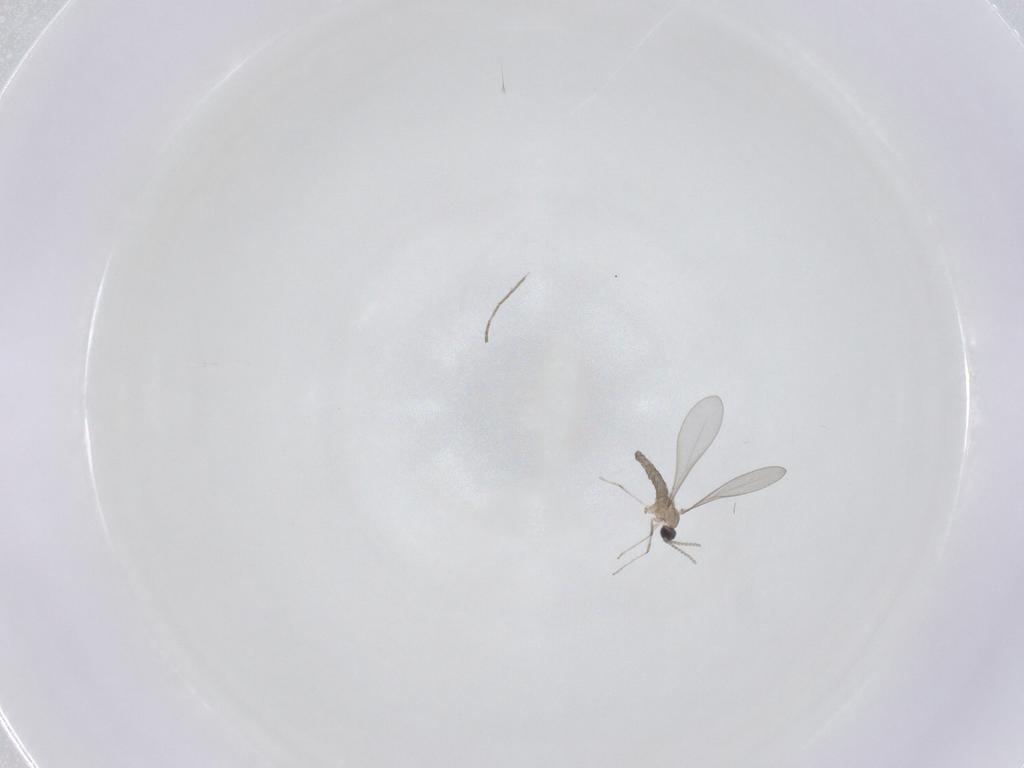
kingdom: Animalia
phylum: Arthropoda
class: Insecta
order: Diptera
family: Cecidomyiidae
